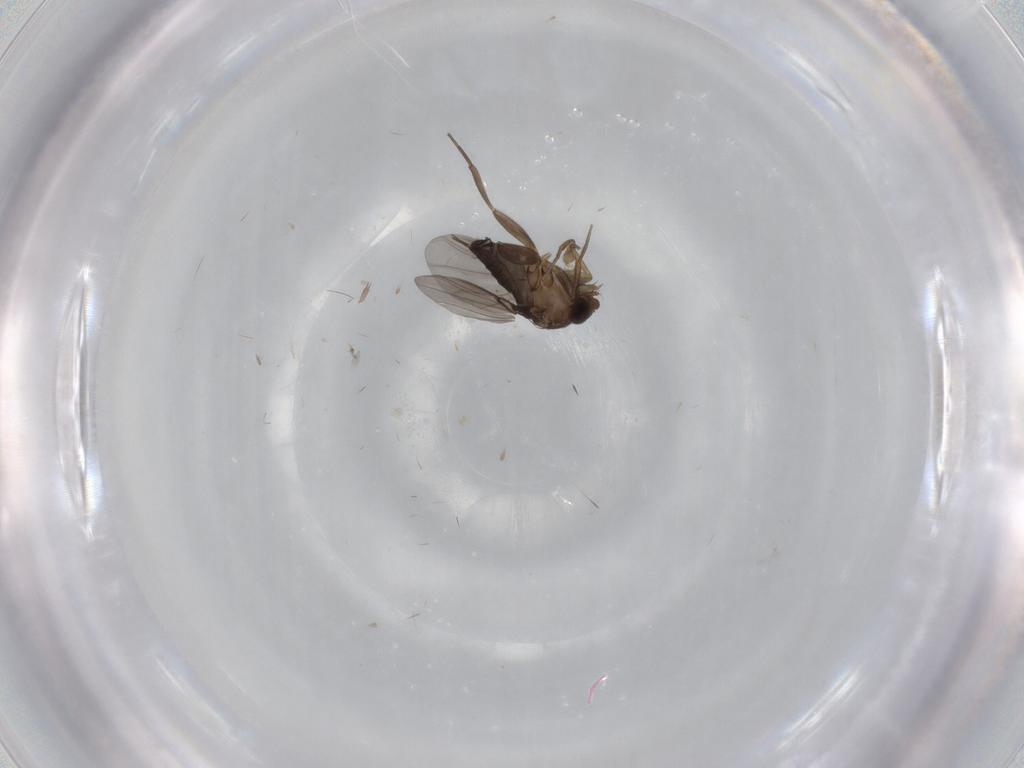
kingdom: Animalia
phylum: Arthropoda
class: Insecta
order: Diptera
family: Phoridae
